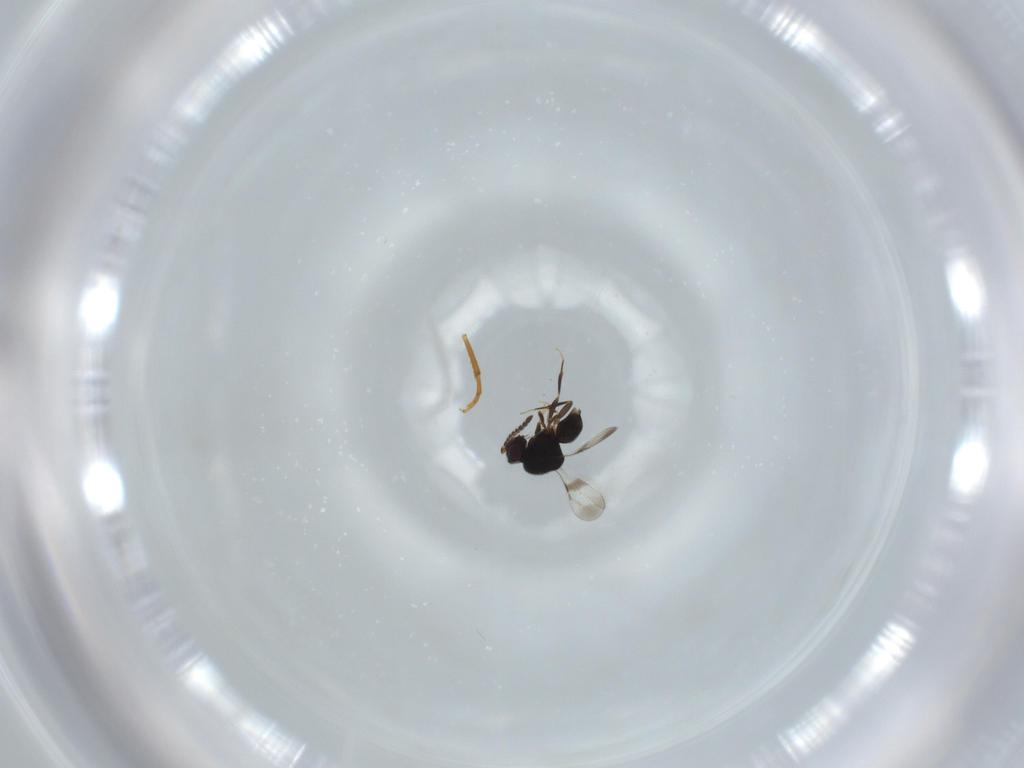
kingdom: Animalia
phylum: Arthropoda
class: Insecta
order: Hymenoptera
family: Ceraphronidae
